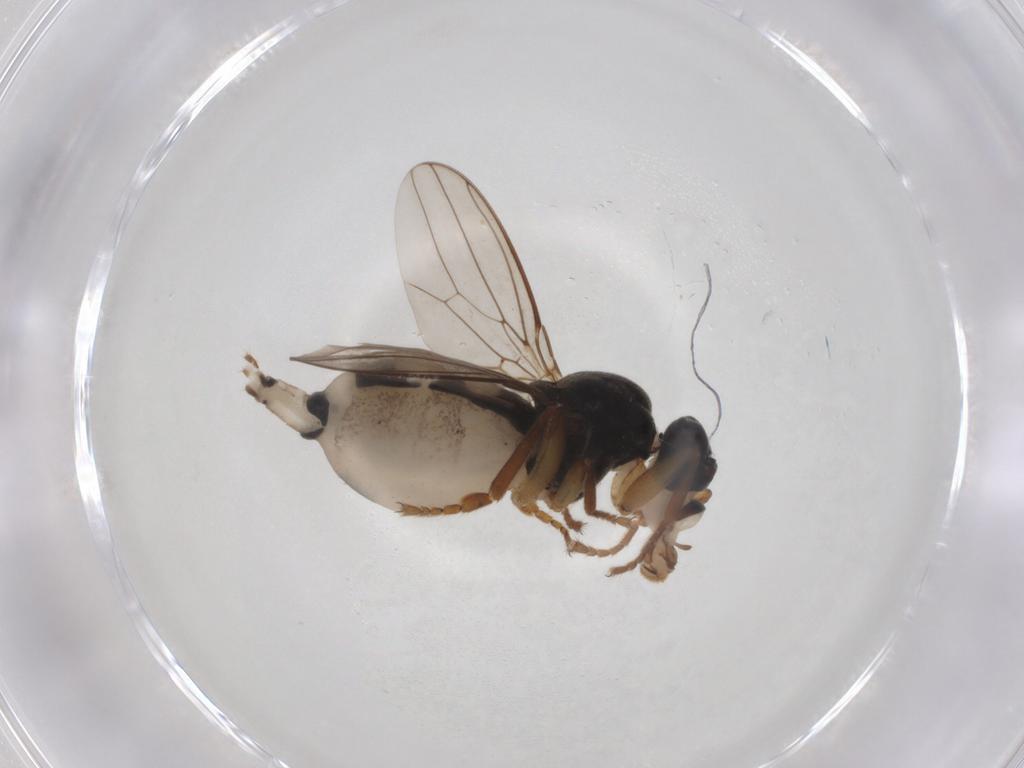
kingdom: Animalia
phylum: Arthropoda
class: Insecta
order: Diptera
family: Sphaeroceridae
